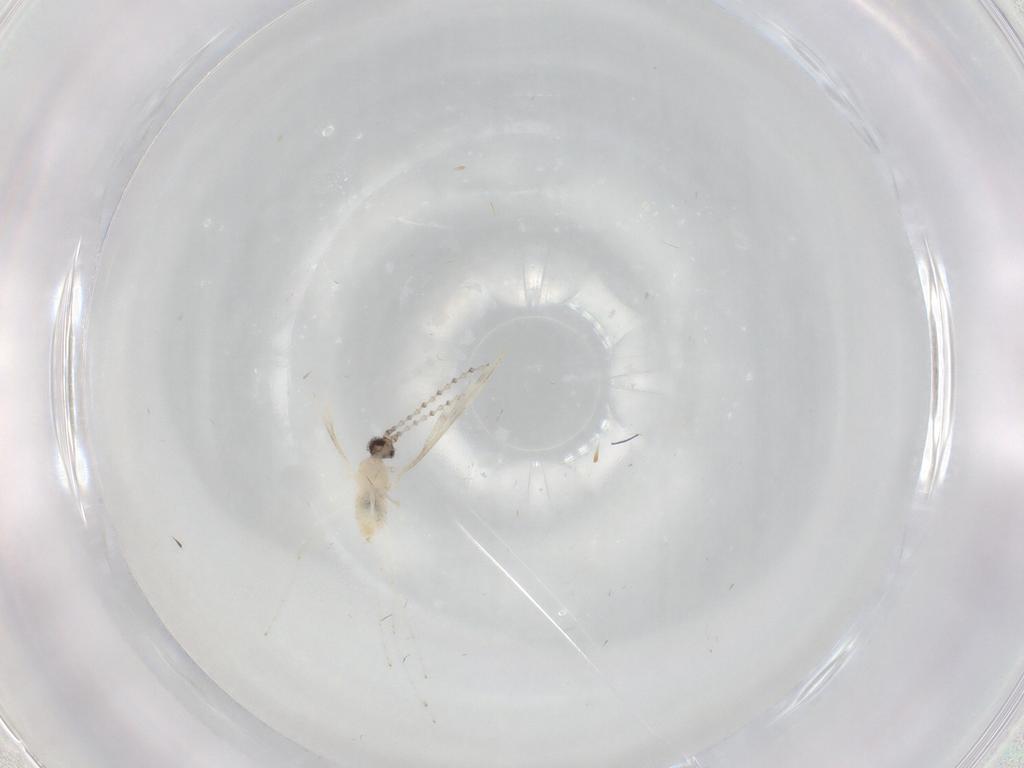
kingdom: Animalia
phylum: Arthropoda
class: Insecta
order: Diptera
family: Cecidomyiidae
